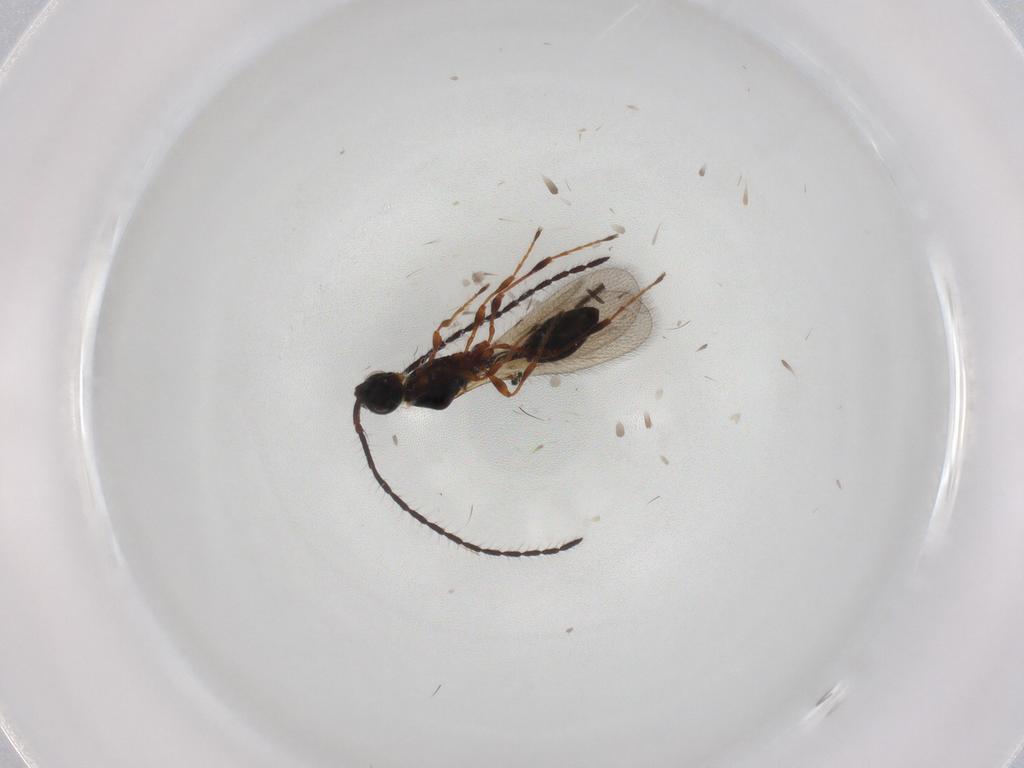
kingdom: Animalia
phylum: Arthropoda
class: Insecta
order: Hymenoptera
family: Diapriidae
